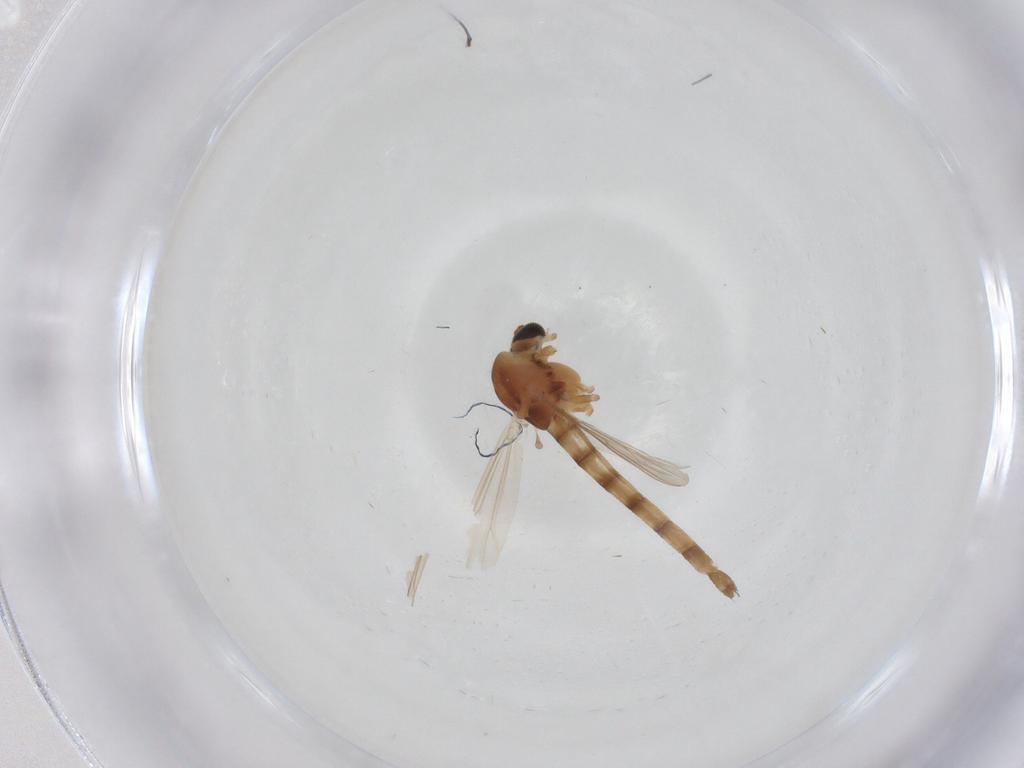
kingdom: Animalia
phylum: Arthropoda
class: Insecta
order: Diptera
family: Chironomidae
